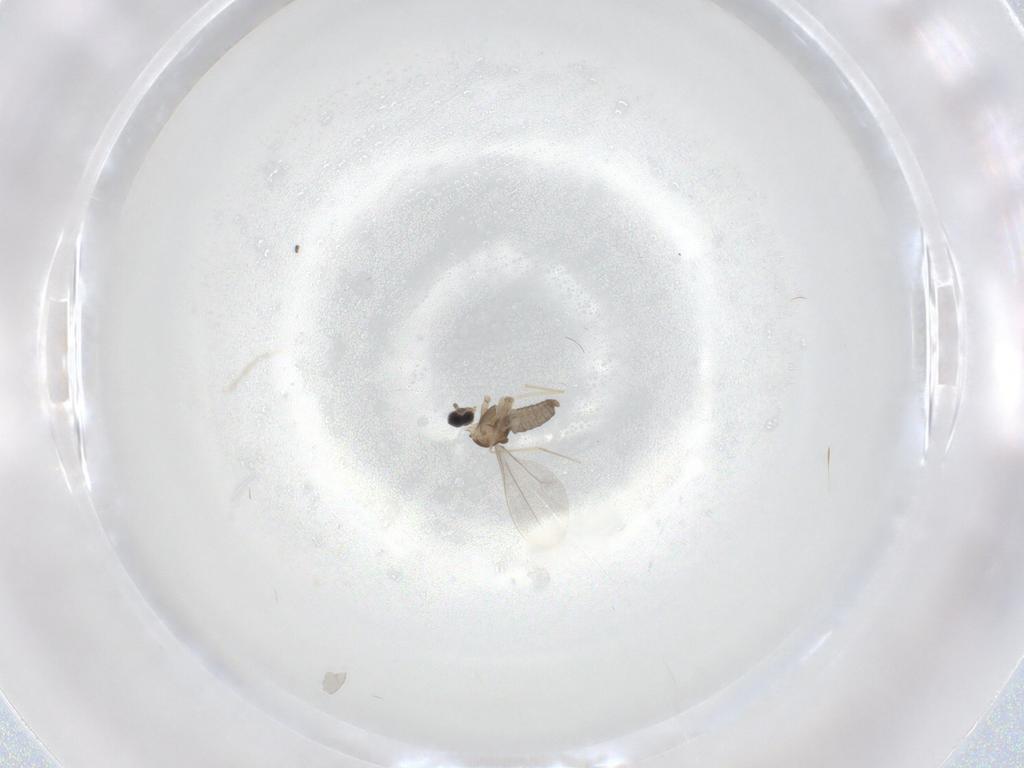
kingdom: Animalia
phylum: Arthropoda
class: Insecta
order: Diptera
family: Cecidomyiidae
